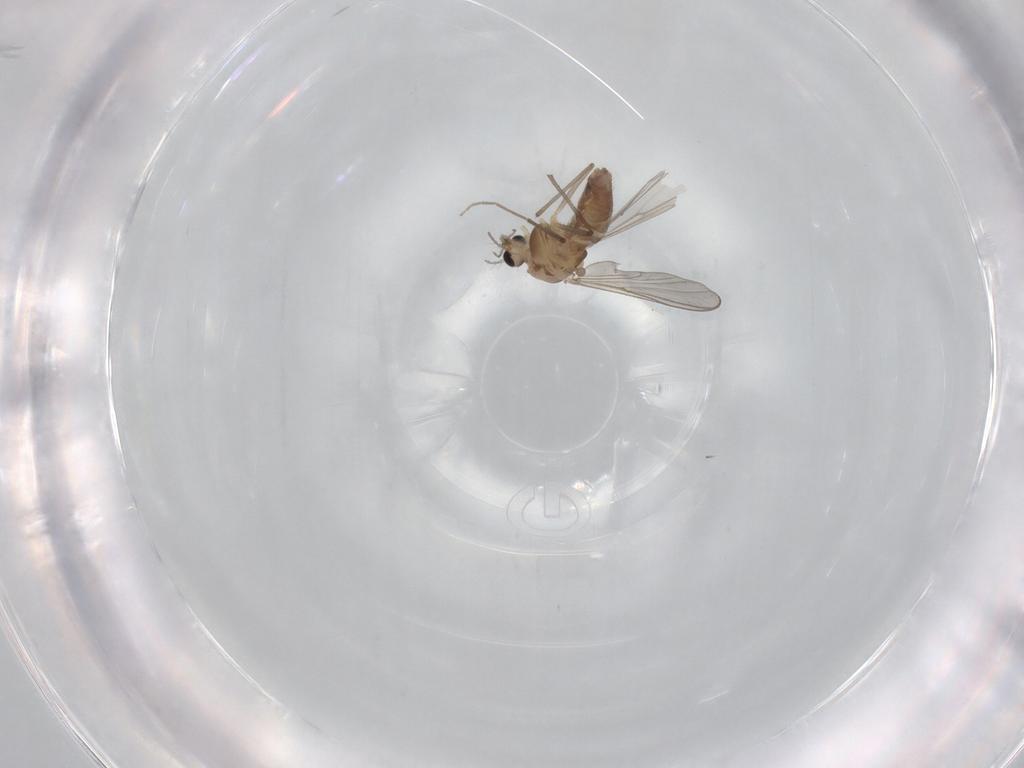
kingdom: Animalia
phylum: Arthropoda
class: Insecta
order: Diptera
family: Chironomidae
